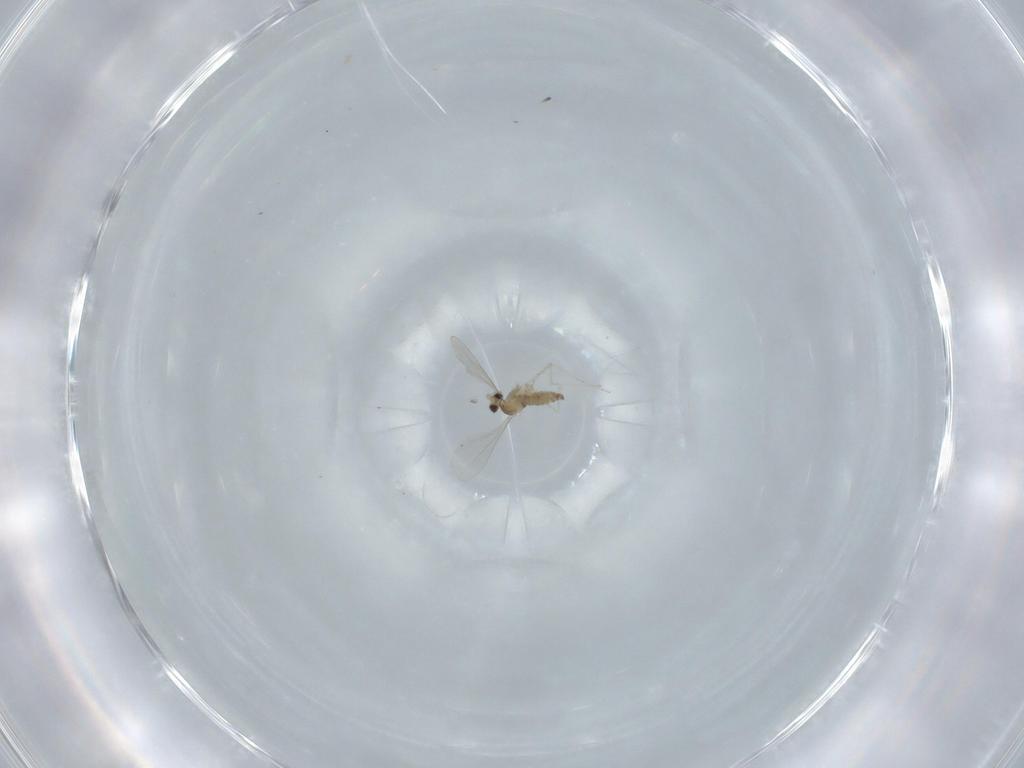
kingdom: Animalia
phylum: Arthropoda
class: Insecta
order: Diptera
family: Cecidomyiidae
